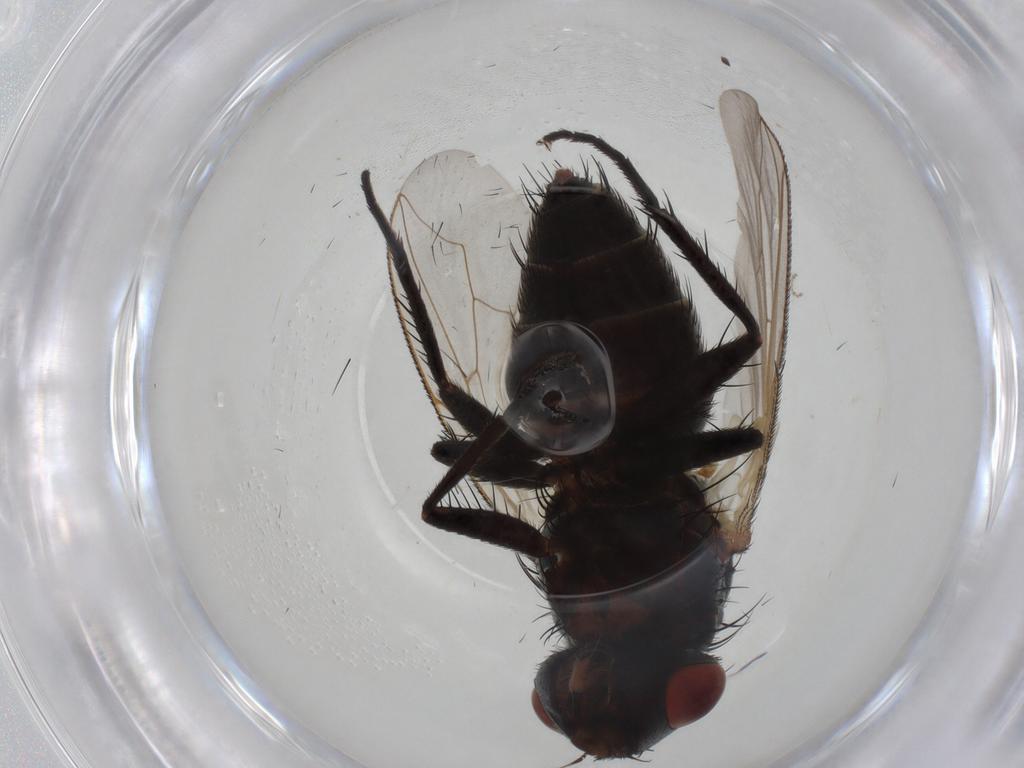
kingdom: Animalia
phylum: Arthropoda
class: Insecta
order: Diptera
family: Sarcophagidae
